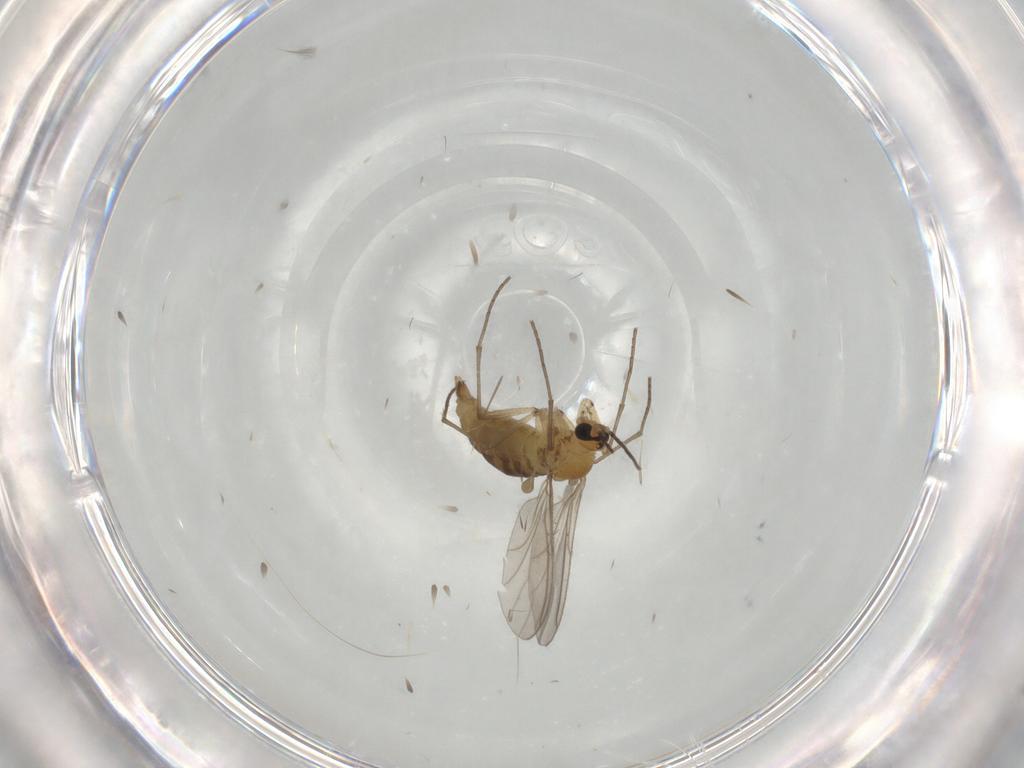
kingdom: Animalia
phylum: Arthropoda
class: Insecta
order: Diptera
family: Sciaridae
